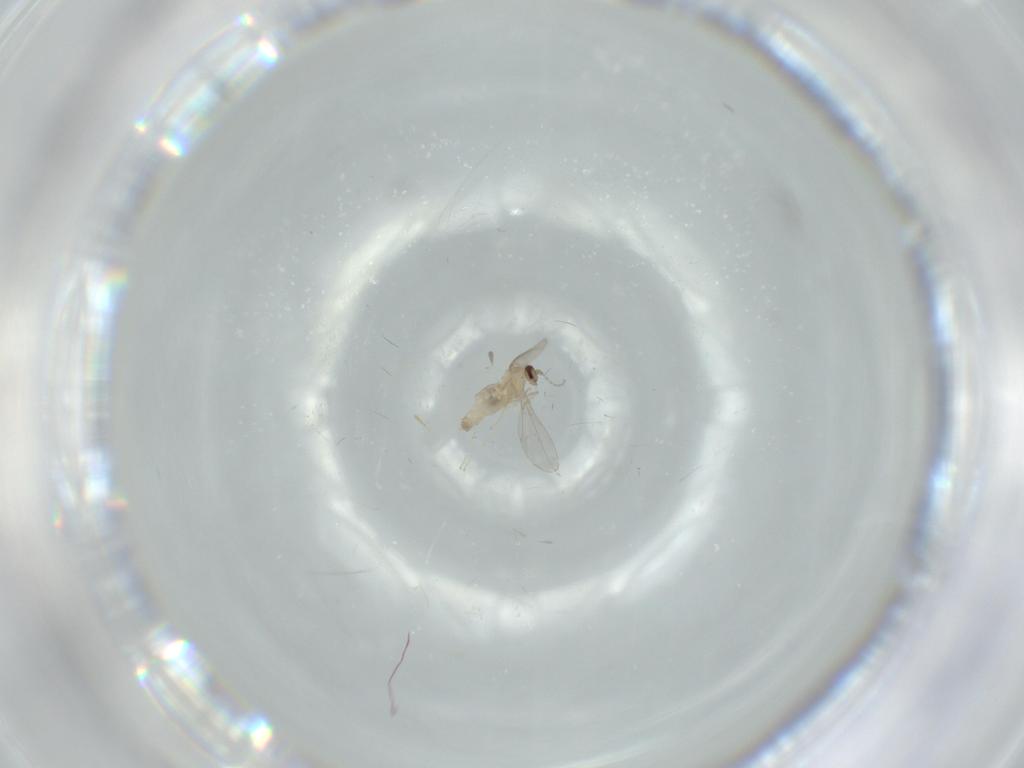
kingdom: Animalia
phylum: Arthropoda
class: Insecta
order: Diptera
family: Cecidomyiidae
